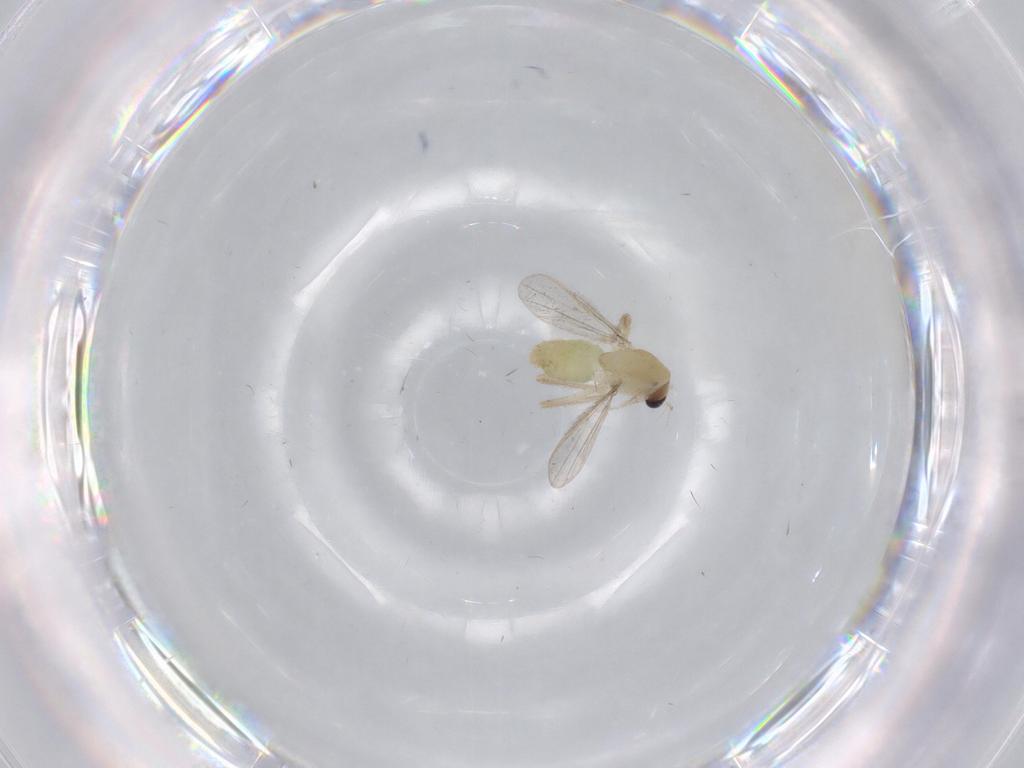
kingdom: Animalia
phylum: Arthropoda
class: Insecta
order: Diptera
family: Chironomidae
